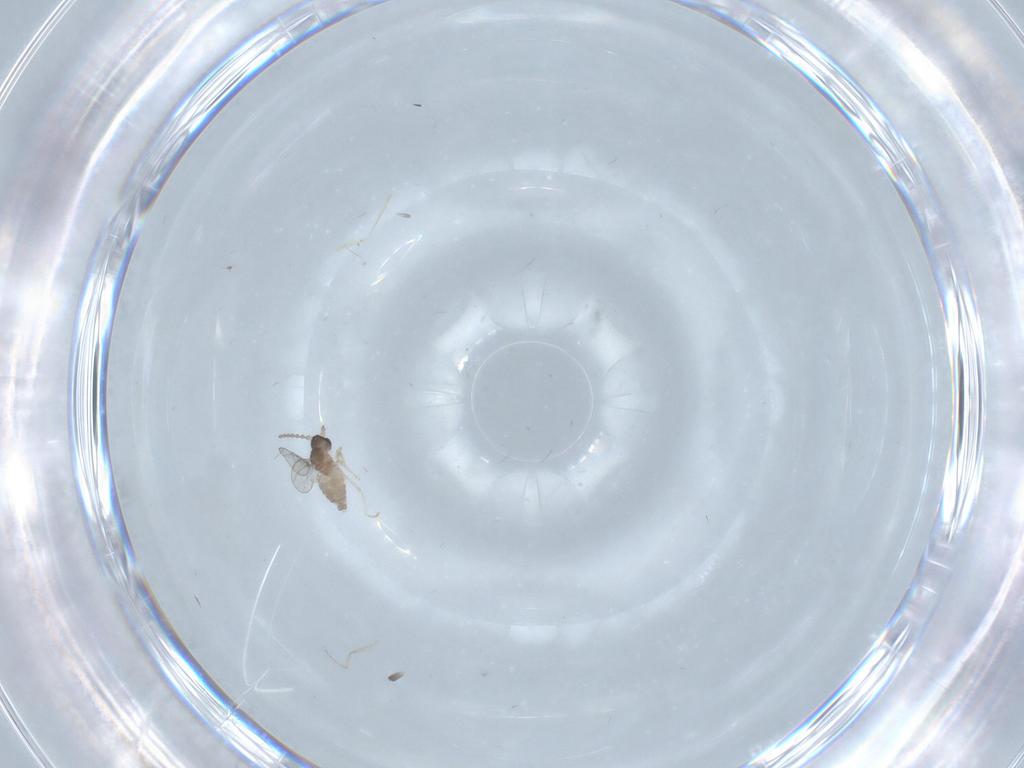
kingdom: Animalia
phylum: Arthropoda
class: Insecta
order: Diptera
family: Cecidomyiidae
